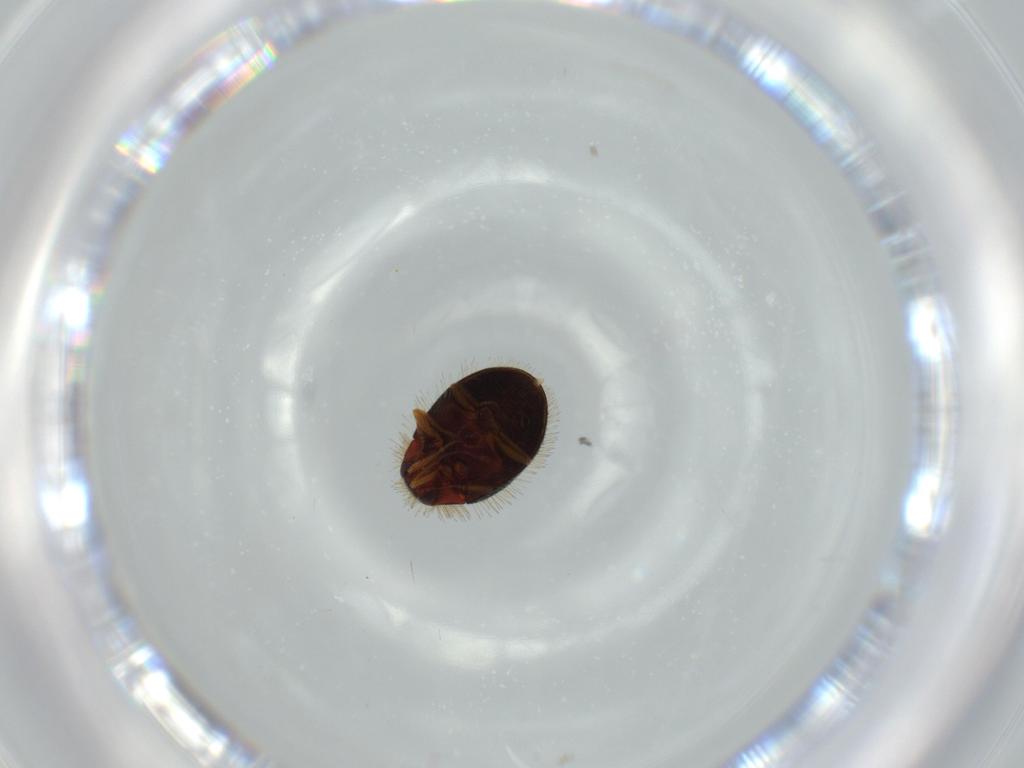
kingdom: Animalia
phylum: Arthropoda
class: Insecta
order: Coleoptera
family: Dermestidae
